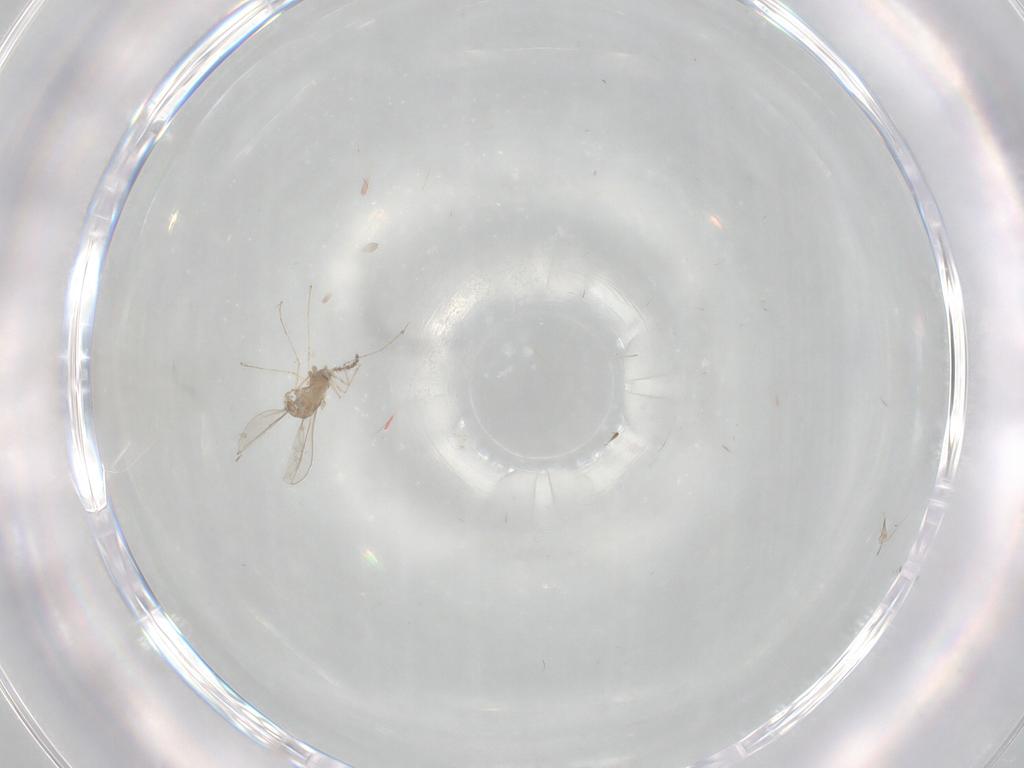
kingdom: Animalia
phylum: Arthropoda
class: Insecta
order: Diptera
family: Cecidomyiidae
